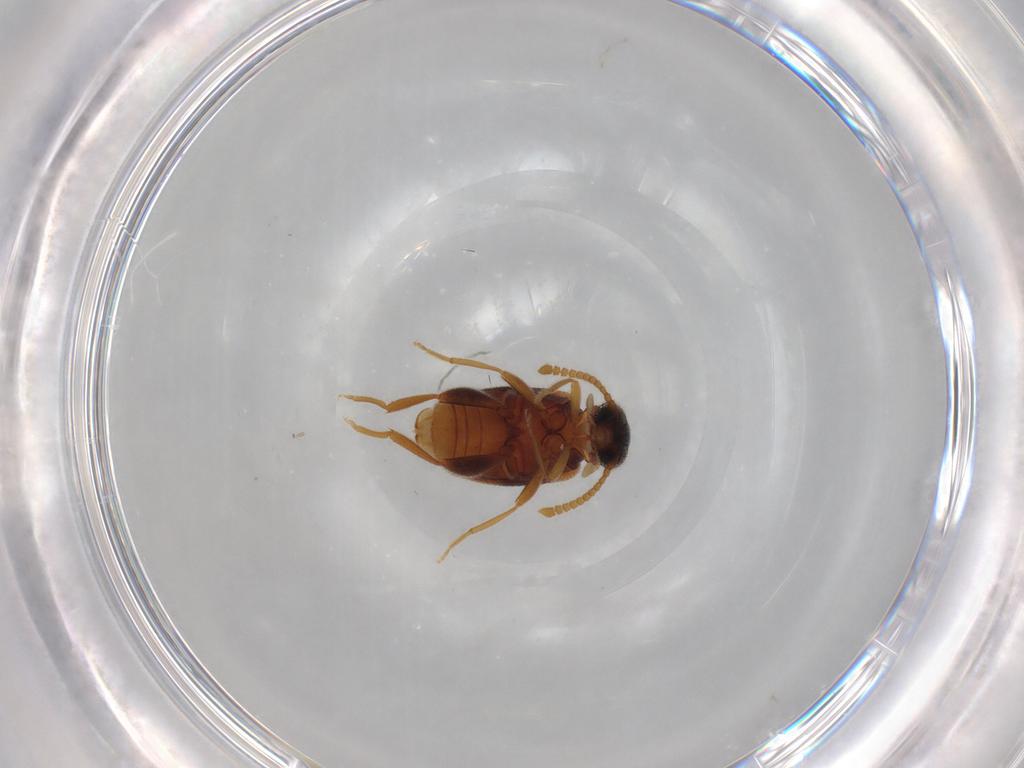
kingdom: Animalia
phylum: Arthropoda
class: Insecta
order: Coleoptera
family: Aderidae
